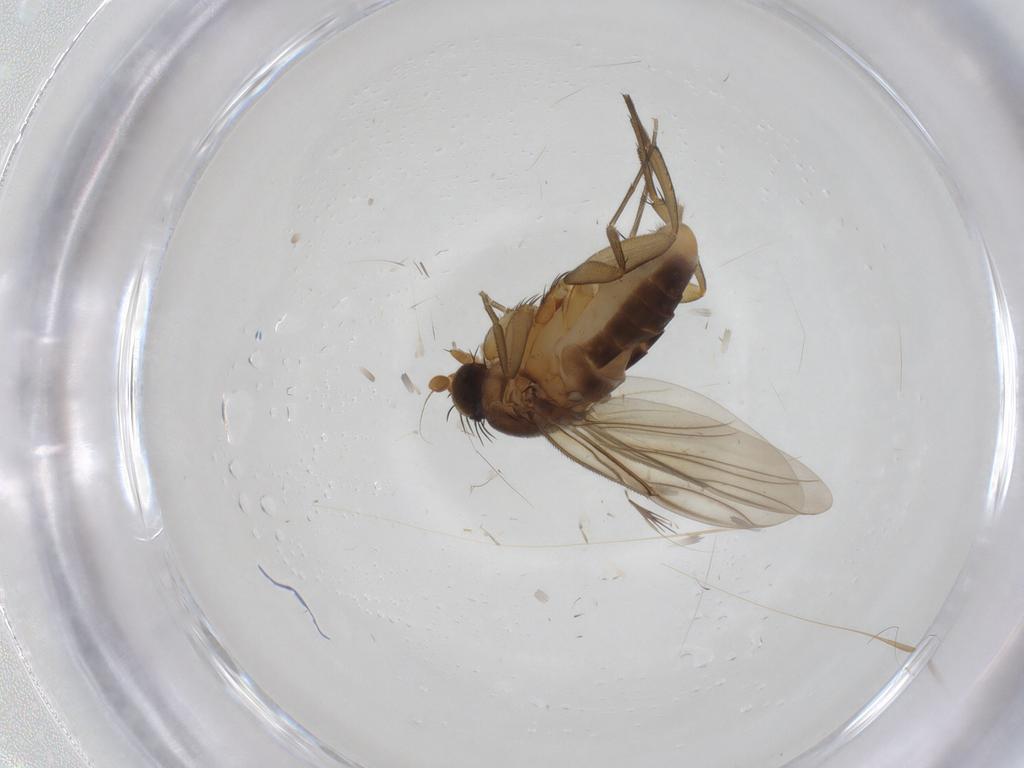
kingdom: Animalia
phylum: Arthropoda
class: Insecta
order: Diptera
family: Phoridae
